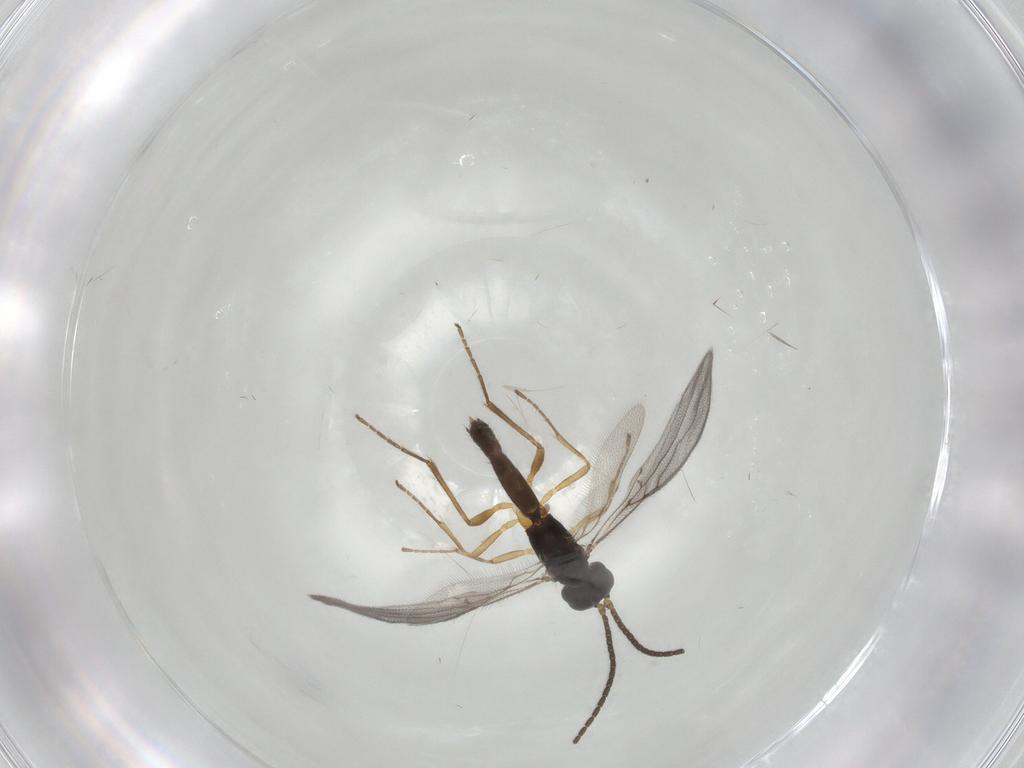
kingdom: Animalia
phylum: Arthropoda
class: Insecta
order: Hymenoptera
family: Braconidae
